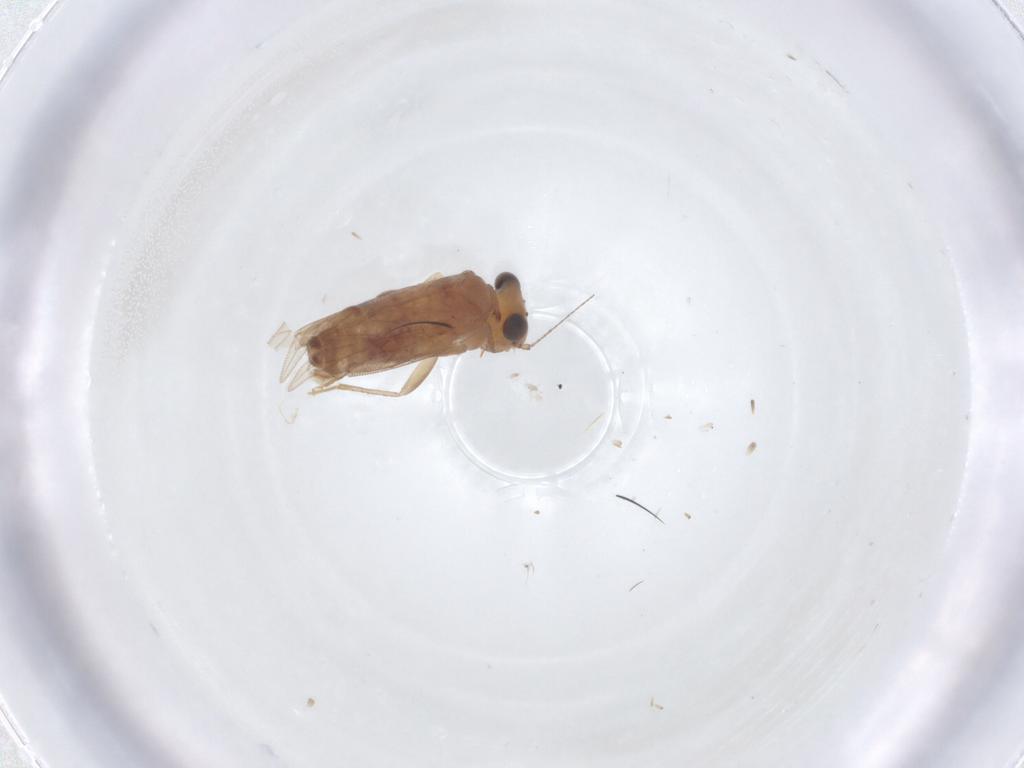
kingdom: Animalia
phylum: Arthropoda
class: Insecta
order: Psocodea
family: Lepidopsocidae
